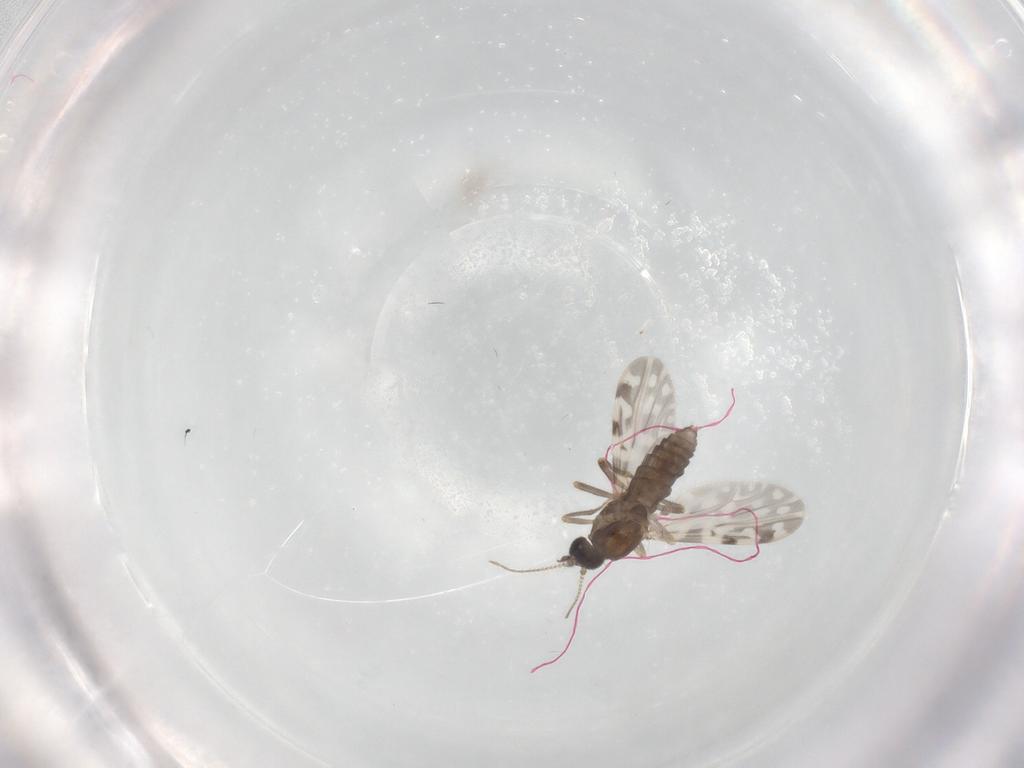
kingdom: Animalia
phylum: Arthropoda
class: Insecta
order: Diptera
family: Ceratopogonidae
